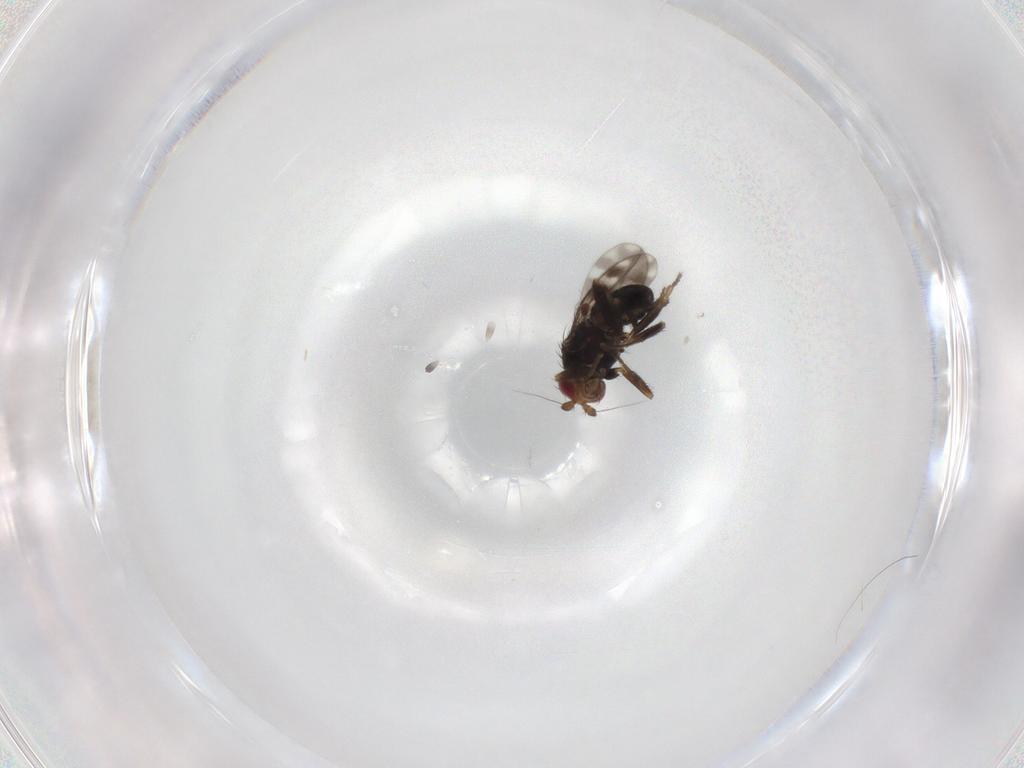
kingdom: Animalia
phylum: Arthropoda
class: Insecta
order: Diptera
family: Sphaeroceridae
